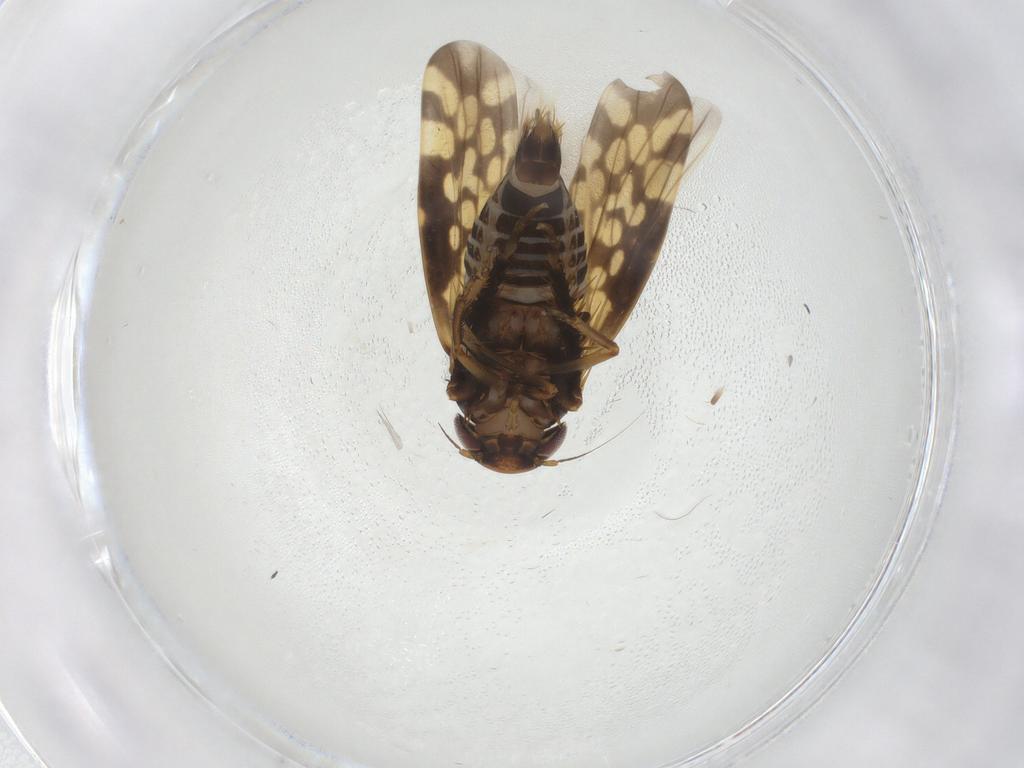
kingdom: Animalia
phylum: Arthropoda
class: Insecta
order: Hemiptera
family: Cicadellidae
